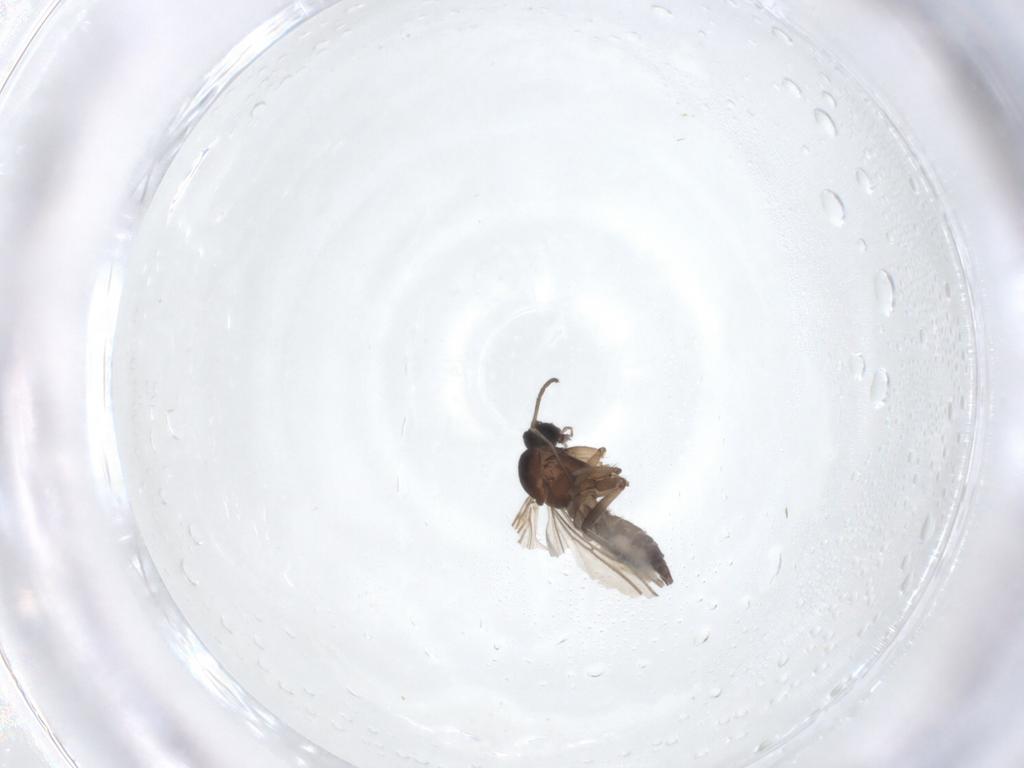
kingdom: Animalia
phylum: Arthropoda
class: Insecta
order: Diptera
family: Sciaridae
